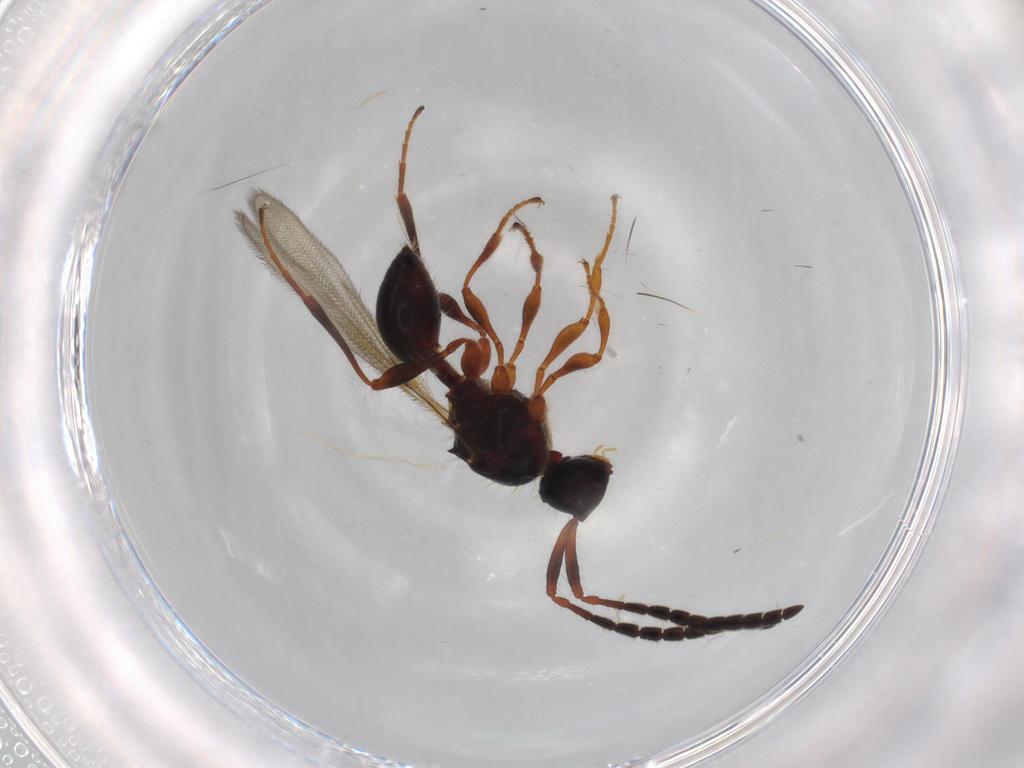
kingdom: Animalia
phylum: Arthropoda
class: Insecta
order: Hymenoptera
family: Diapriidae
